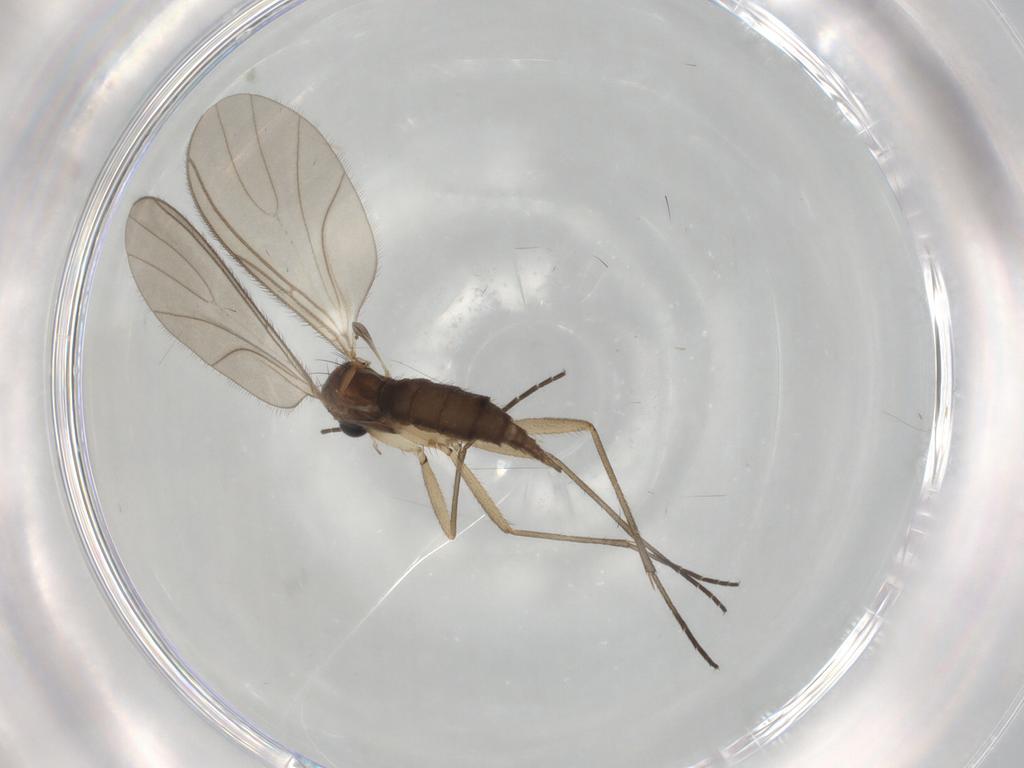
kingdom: Animalia
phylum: Arthropoda
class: Insecta
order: Diptera
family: Sciaridae
